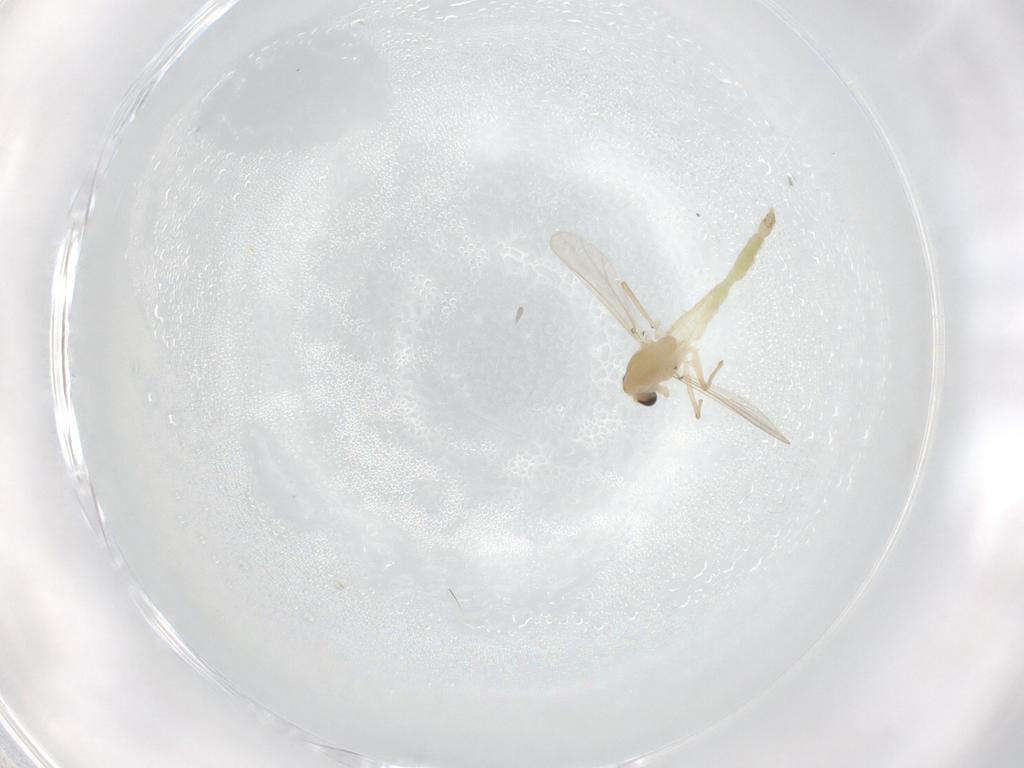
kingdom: Animalia
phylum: Arthropoda
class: Insecta
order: Diptera
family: Chironomidae
